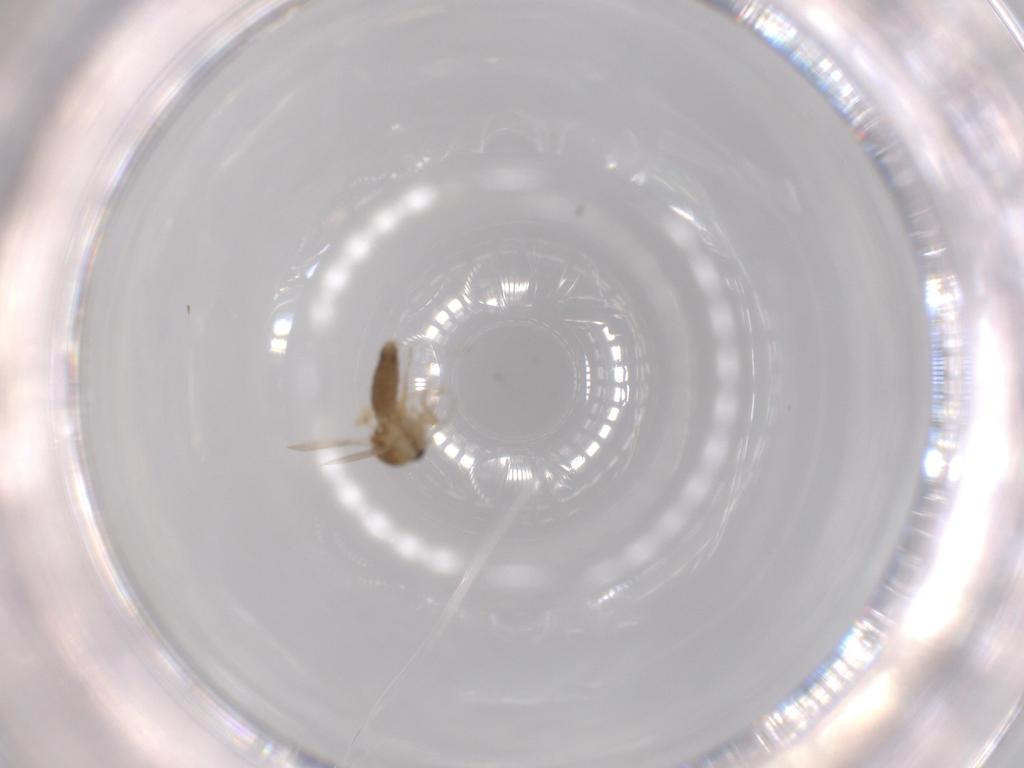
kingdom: Animalia
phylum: Arthropoda
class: Insecta
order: Diptera
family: Ceratopogonidae
